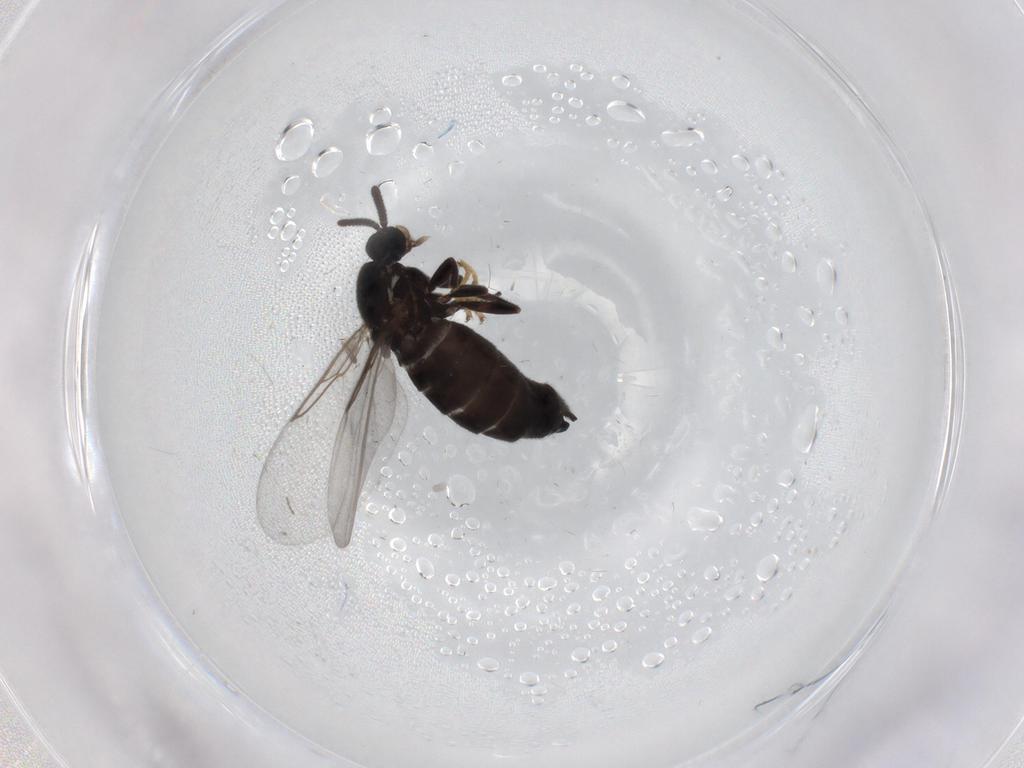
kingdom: Animalia
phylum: Arthropoda
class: Insecta
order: Diptera
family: Scatopsidae
